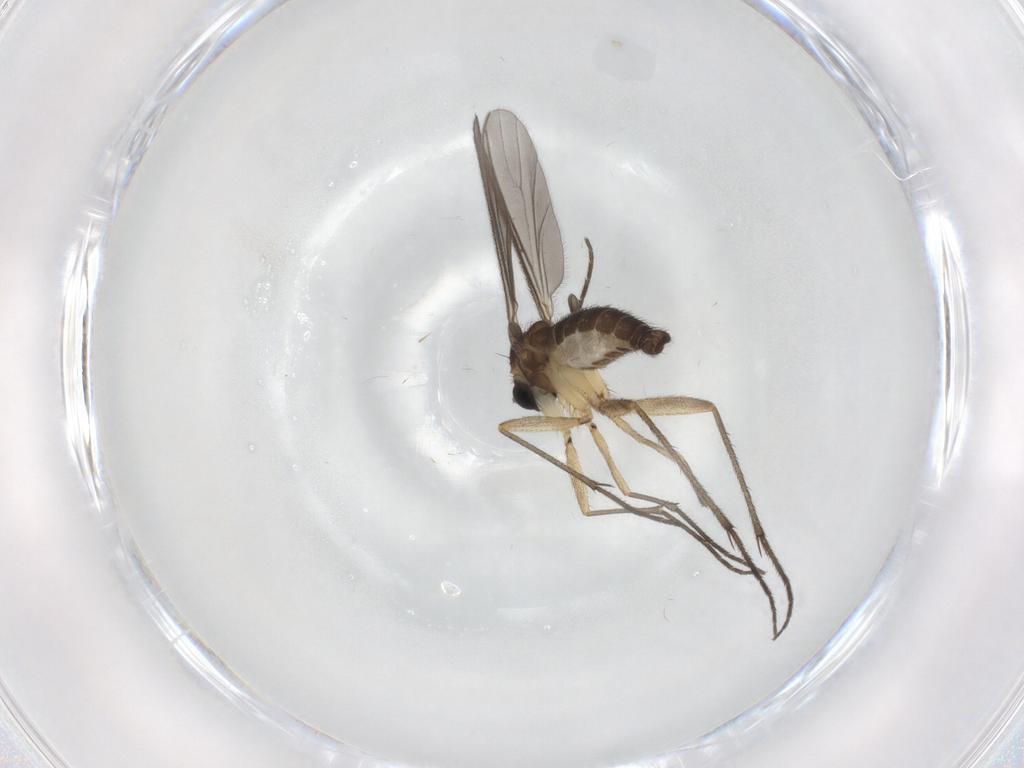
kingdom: Animalia
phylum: Arthropoda
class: Insecta
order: Diptera
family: Sciaridae
